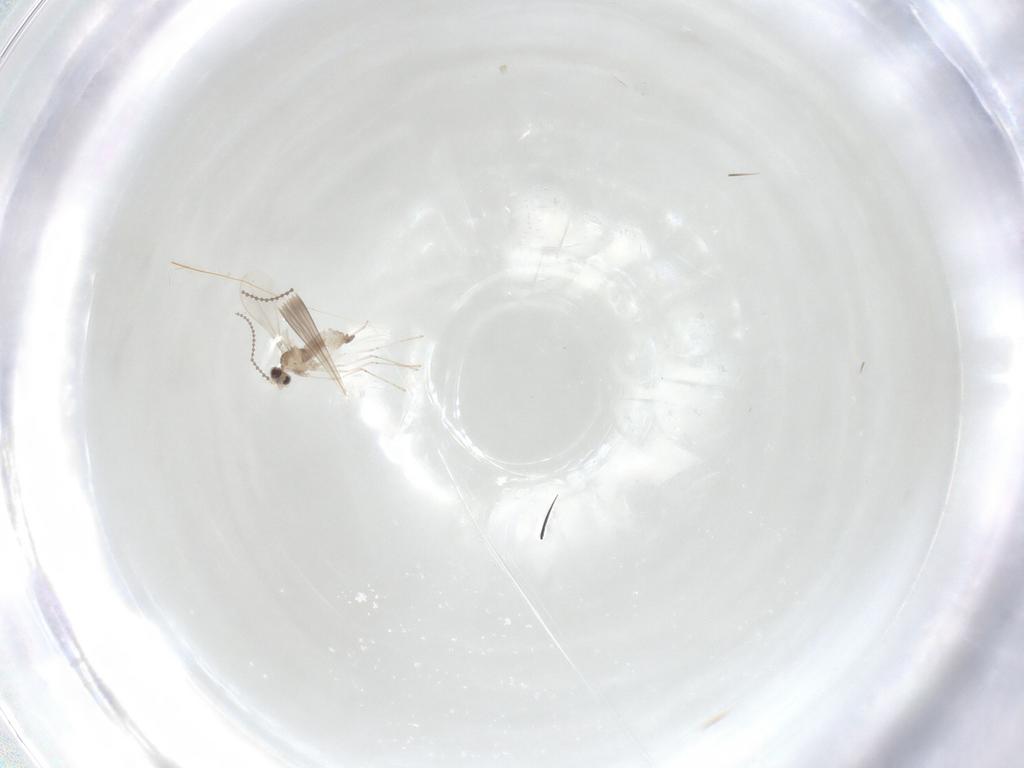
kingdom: Animalia
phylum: Arthropoda
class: Insecta
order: Diptera
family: Cecidomyiidae
